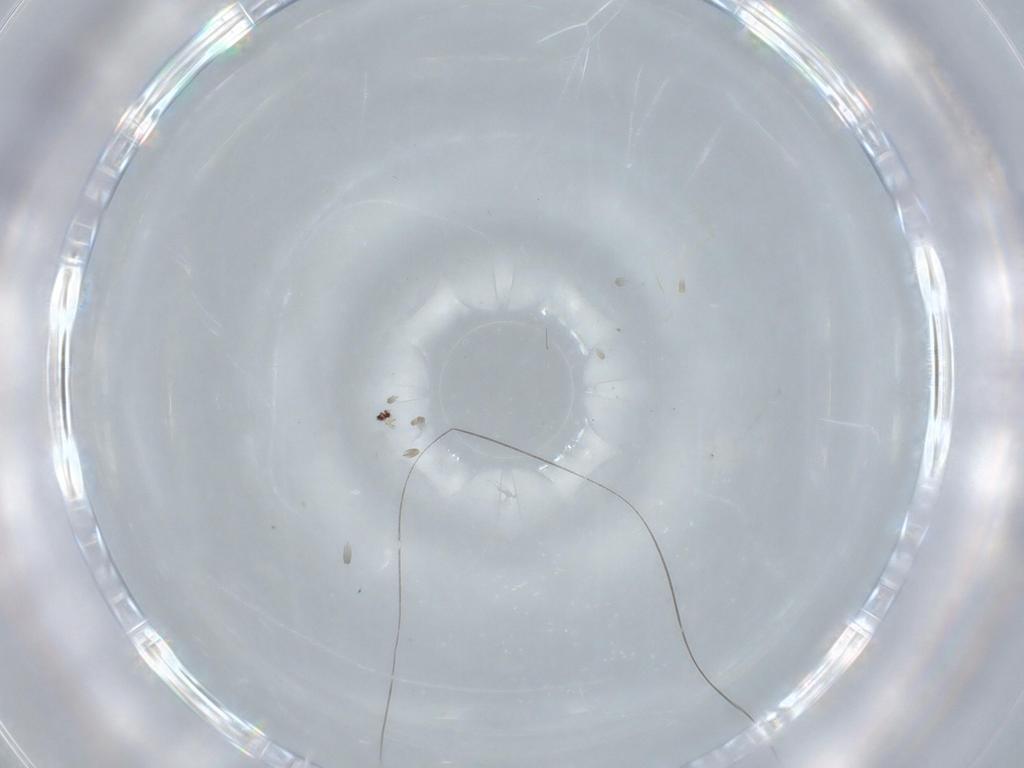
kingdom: Animalia
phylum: Arthropoda
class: Insecta
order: Diptera
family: Cecidomyiidae
